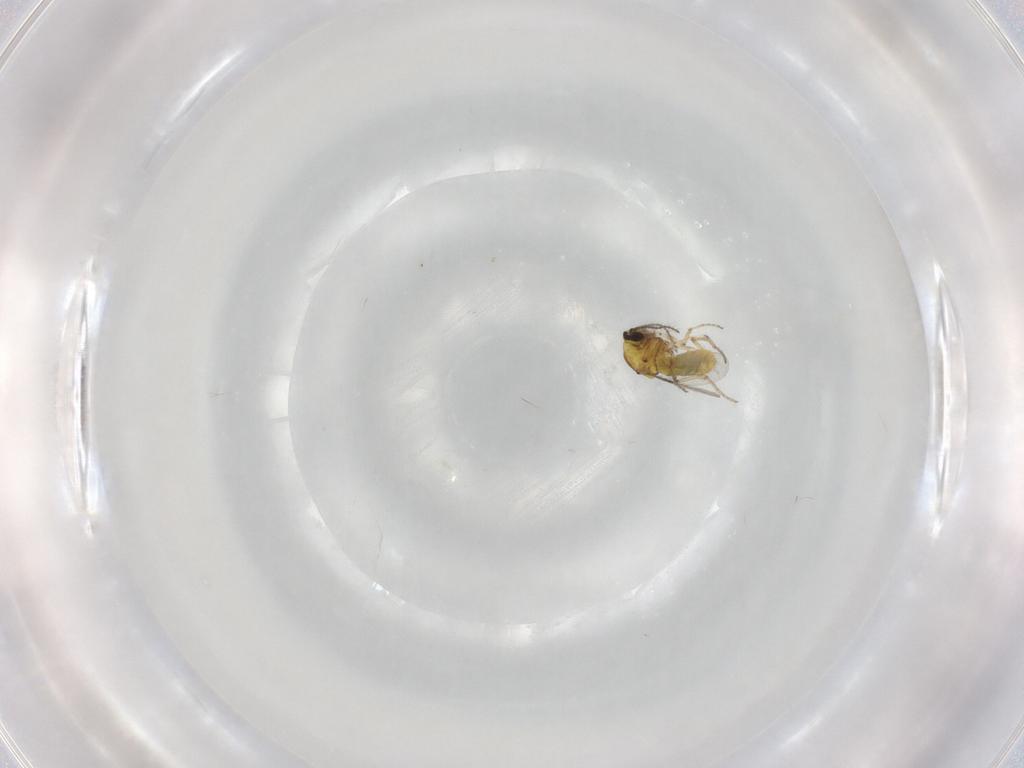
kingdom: Animalia
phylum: Arthropoda
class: Insecta
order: Diptera
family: Ceratopogonidae
